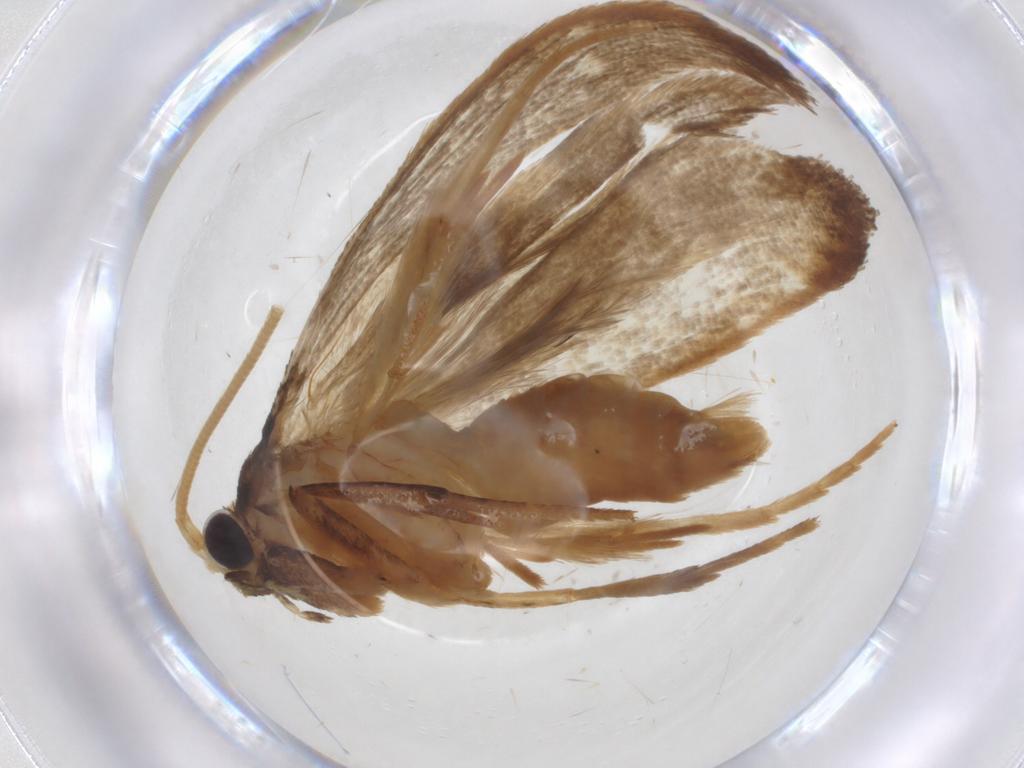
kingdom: Animalia
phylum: Arthropoda
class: Insecta
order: Lepidoptera
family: Erebidae
